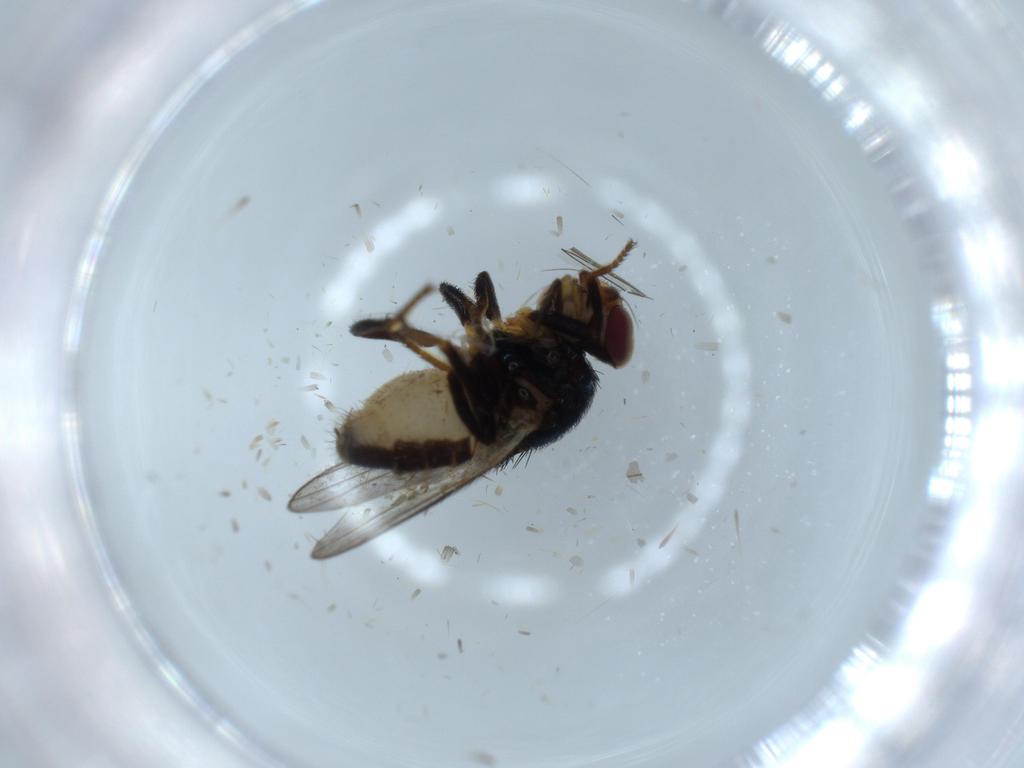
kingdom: Animalia
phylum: Arthropoda
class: Insecta
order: Diptera
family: Chloropidae
